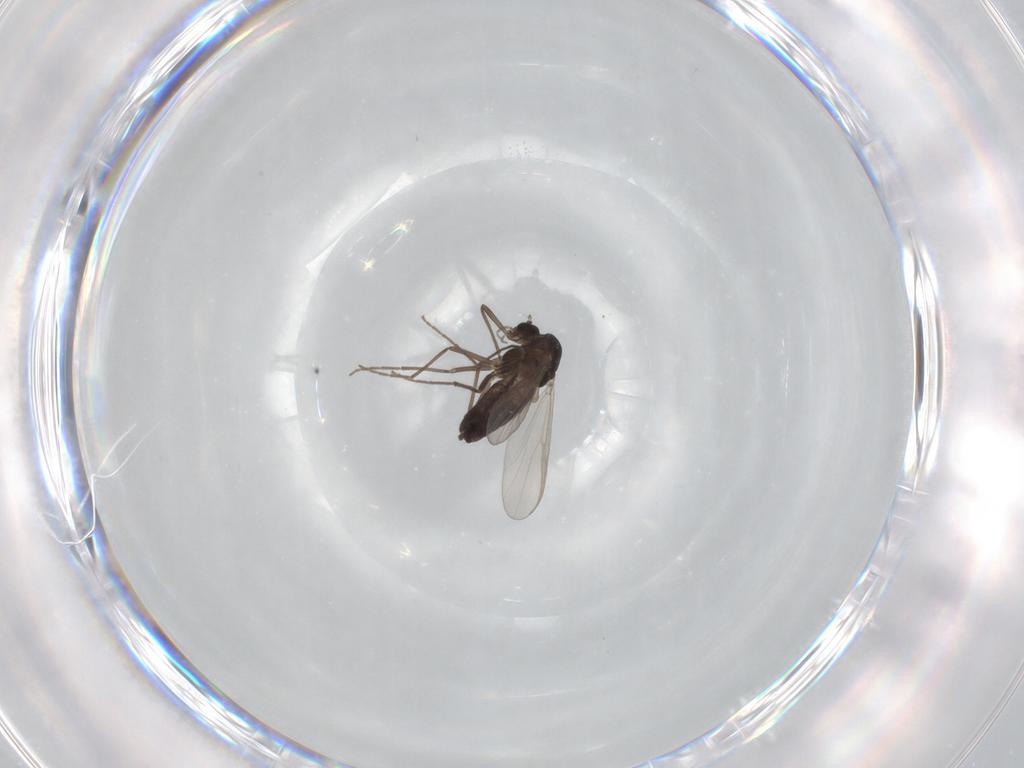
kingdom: Animalia
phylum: Arthropoda
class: Insecta
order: Diptera
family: Chironomidae
